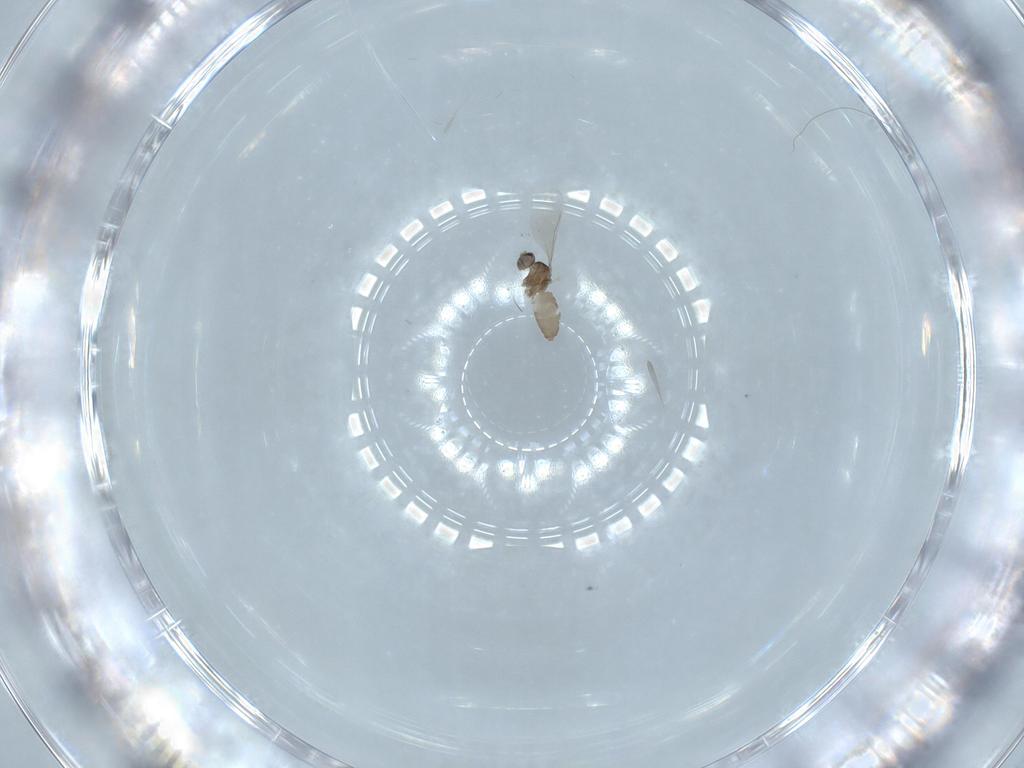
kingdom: Animalia
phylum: Arthropoda
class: Insecta
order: Diptera
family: Cecidomyiidae
